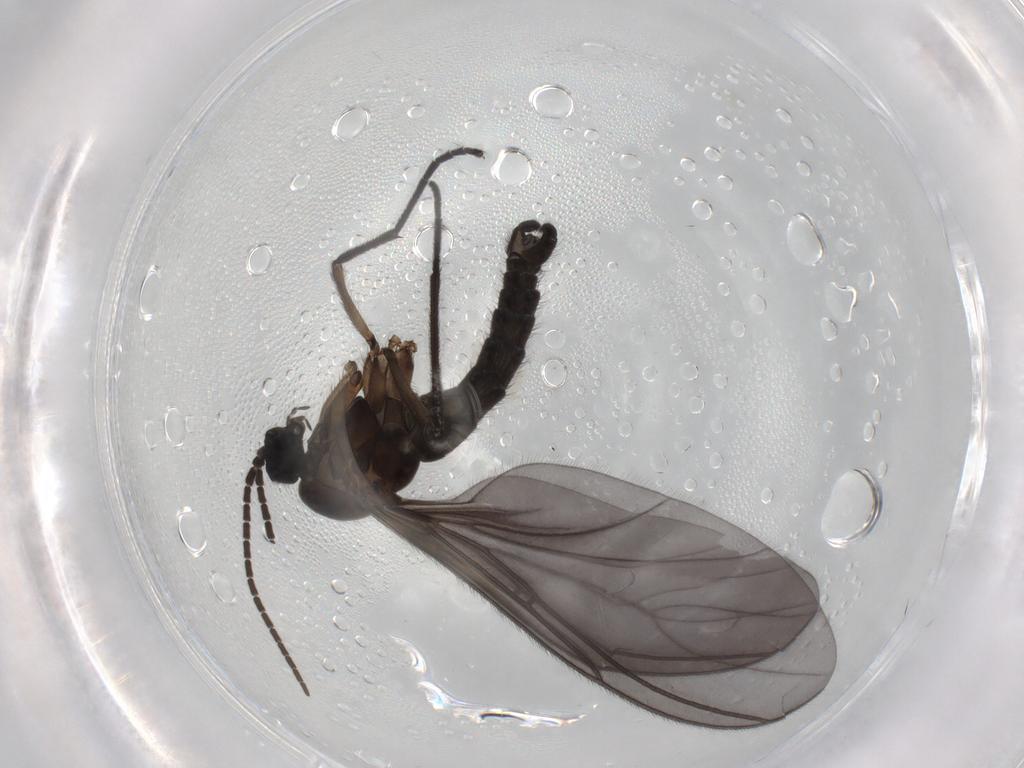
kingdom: Animalia
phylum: Arthropoda
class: Insecta
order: Diptera
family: Sciaridae
